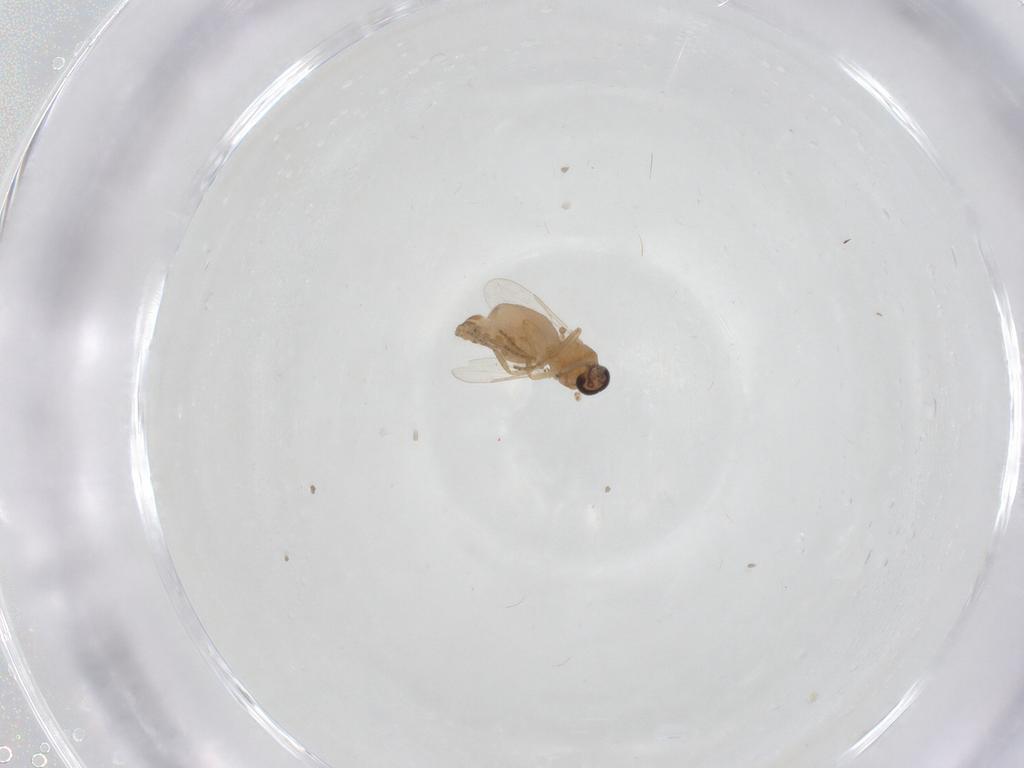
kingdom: Animalia
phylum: Arthropoda
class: Insecta
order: Diptera
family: Ceratopogonidae
